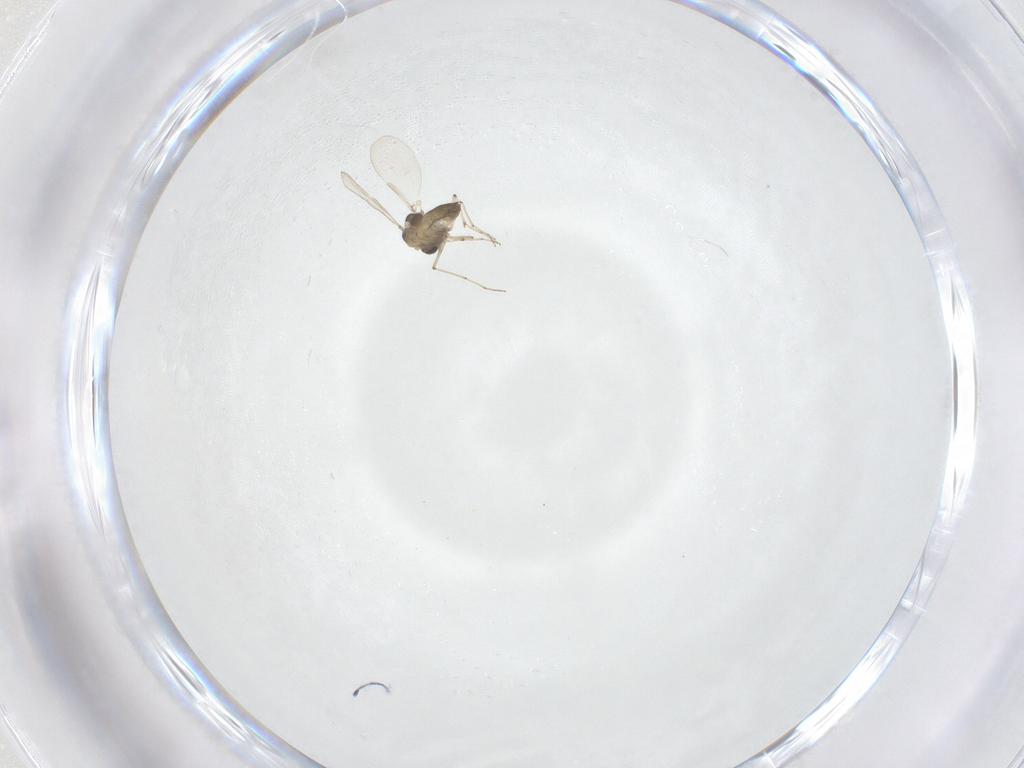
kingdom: Animalia
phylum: Arthropoda
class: Insecta
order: Diptera
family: Chironomidae
